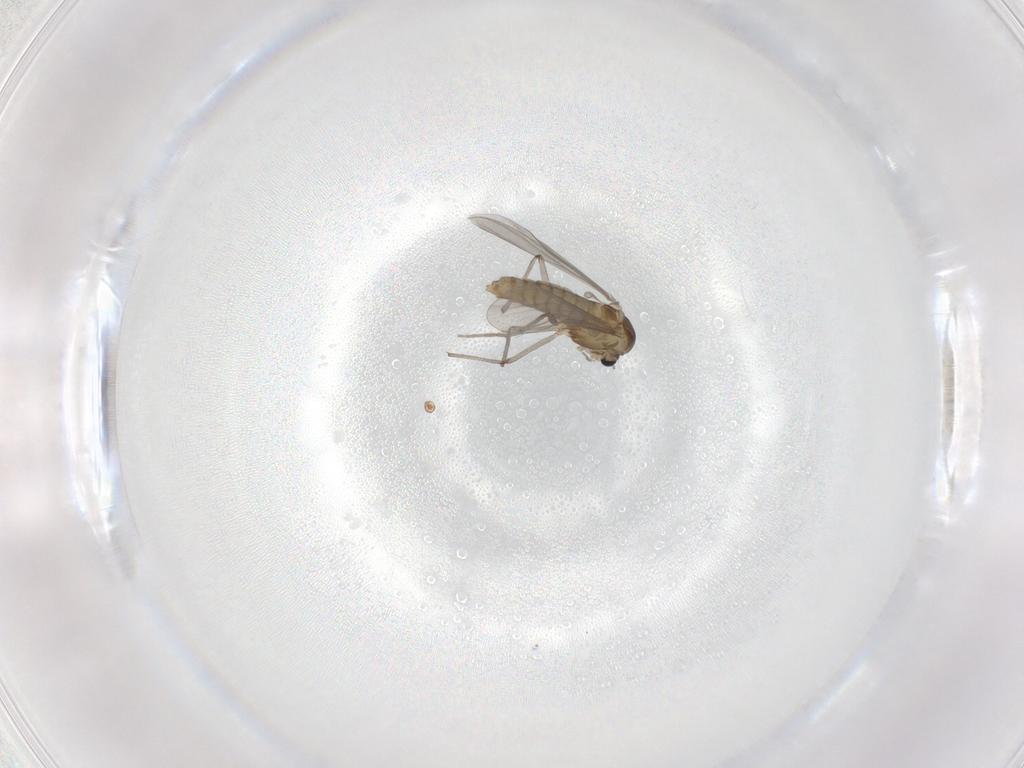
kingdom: Animalia
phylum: Arthropoda
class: Insecta
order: Diptera
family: Chironomidae
